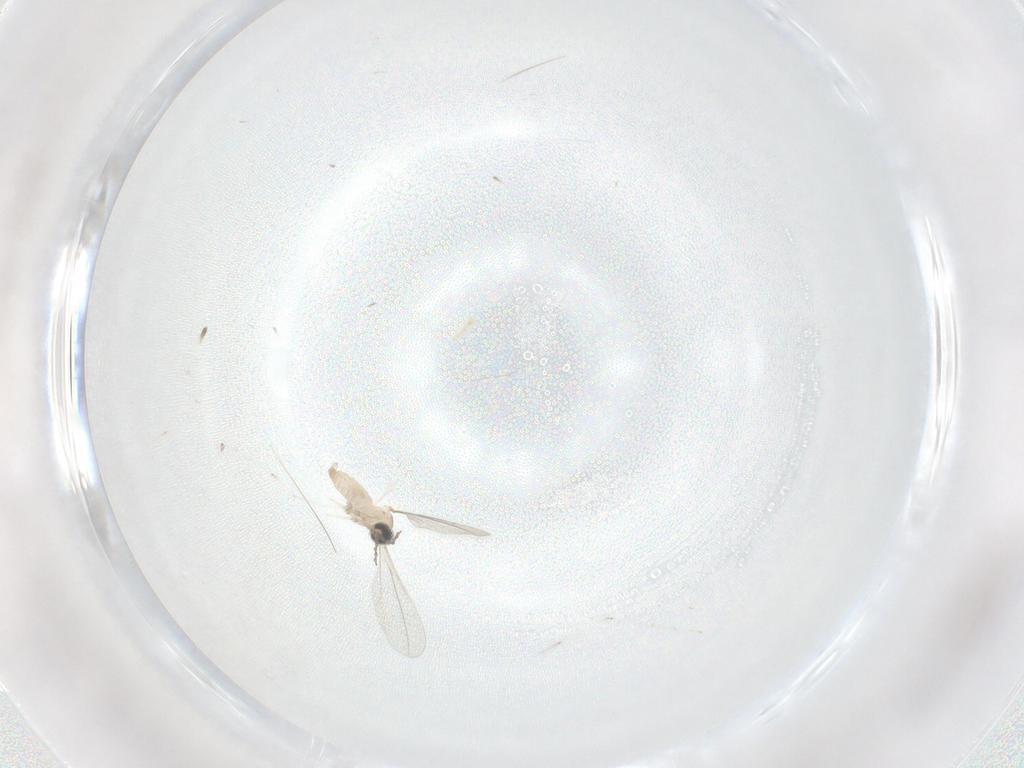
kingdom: Animalia
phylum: Arthropoda
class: Insecta
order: Diptera
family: Cecidomyiidae
